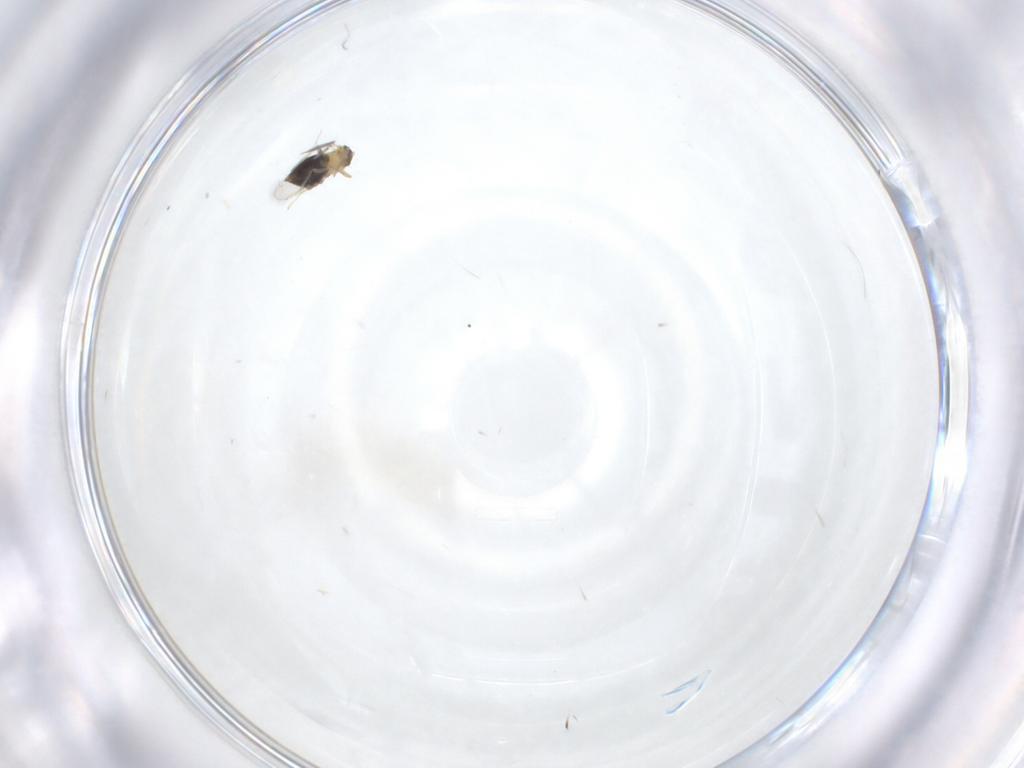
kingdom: Animalia
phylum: Arthropoda
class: Insecta
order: Hymenoptera
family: Aphelinidae
